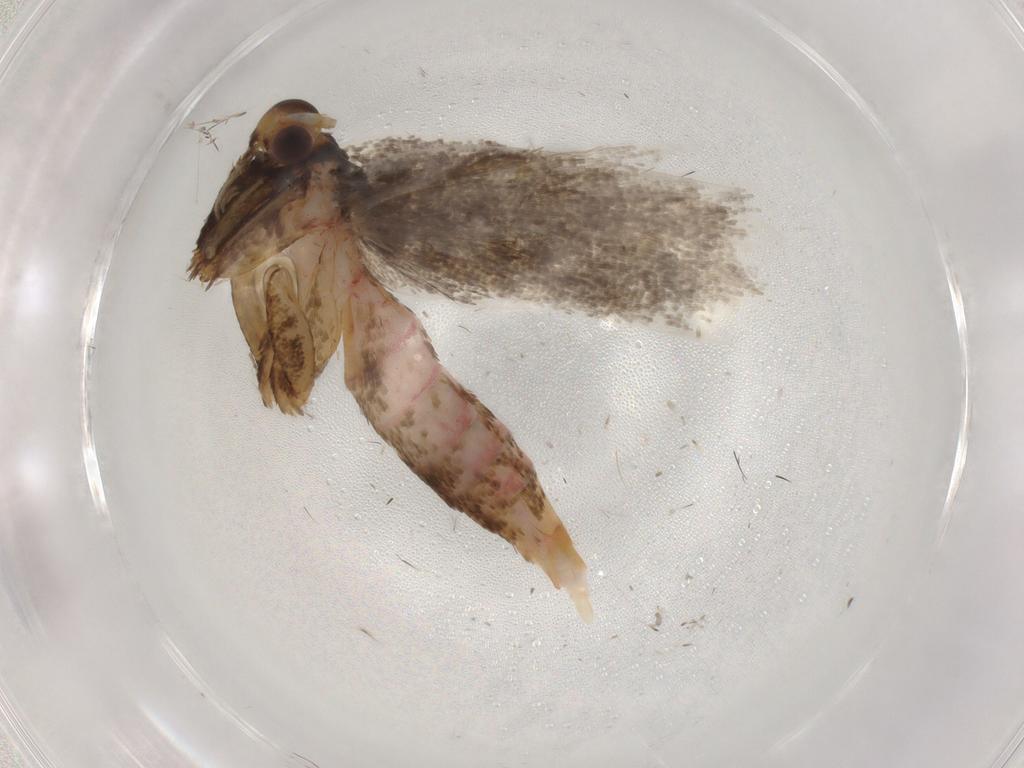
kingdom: Animalia
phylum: Arthropoda
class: Insecta
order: Lepidoptera
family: Lecithoceridae
